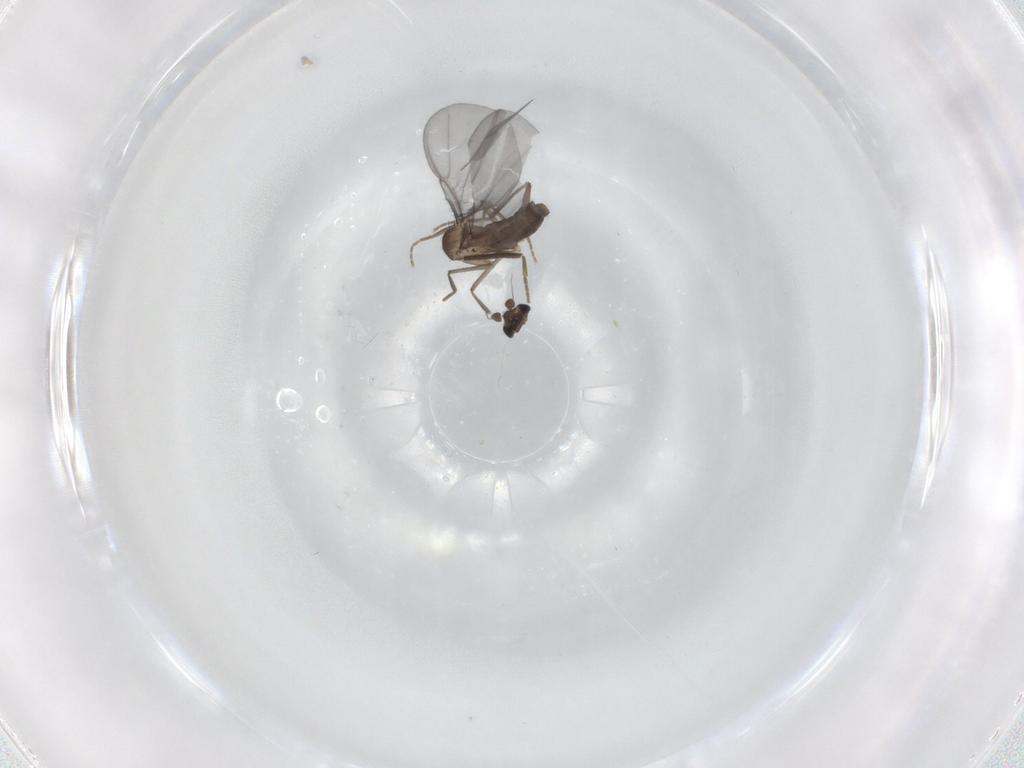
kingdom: Animalia
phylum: Arthropoda
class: Insecta
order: Diptera
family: Phoridae
